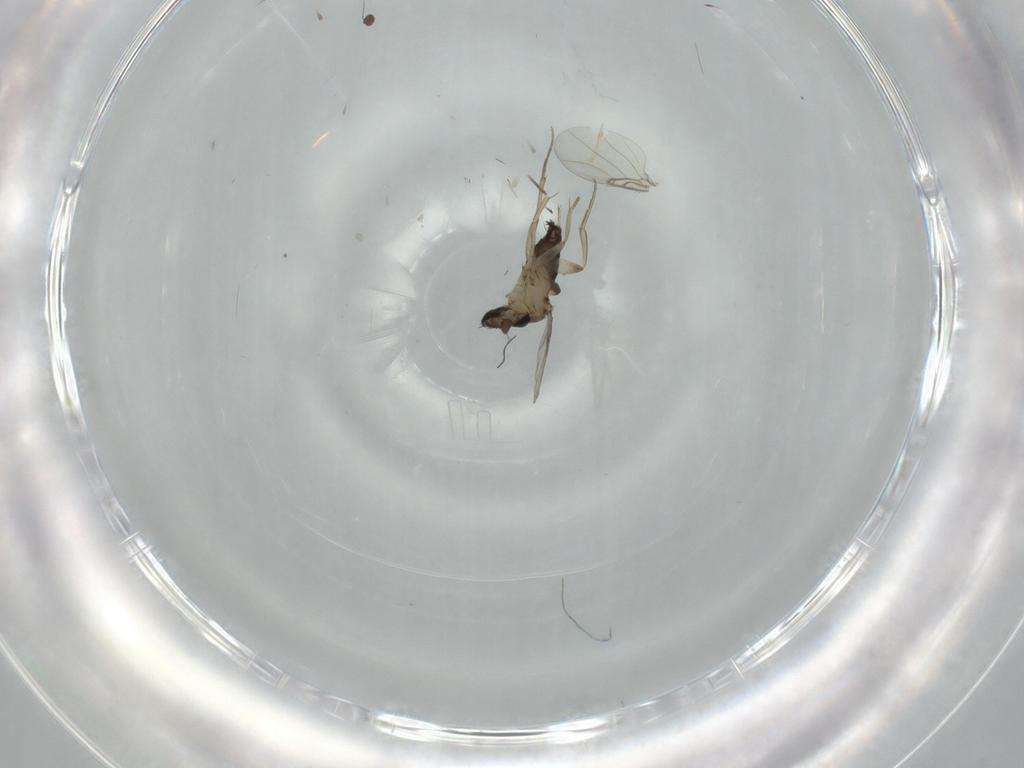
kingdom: Animalia
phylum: Arthropoda
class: Insecta
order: Diptera
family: Phoridae
